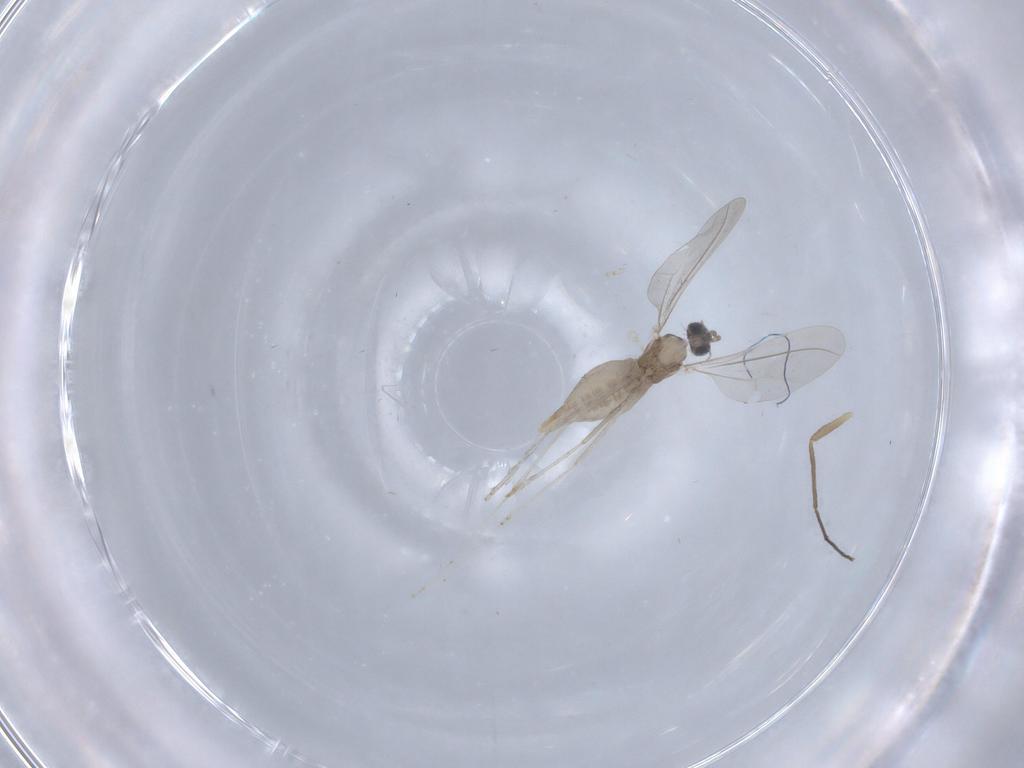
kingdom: Animalia
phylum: Arthropoda
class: Insecta
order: Diptera
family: Cecidomyiidae
